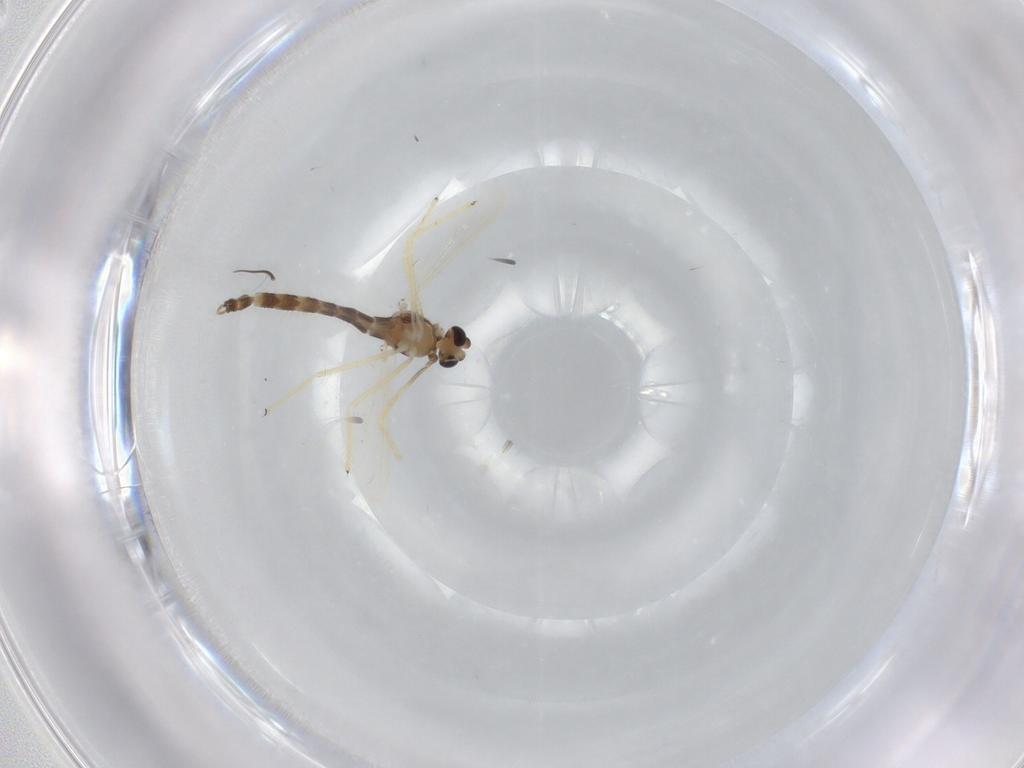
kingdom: Animalia
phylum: Arthropoda
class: Insecta
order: Diptera
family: Chironomidae
